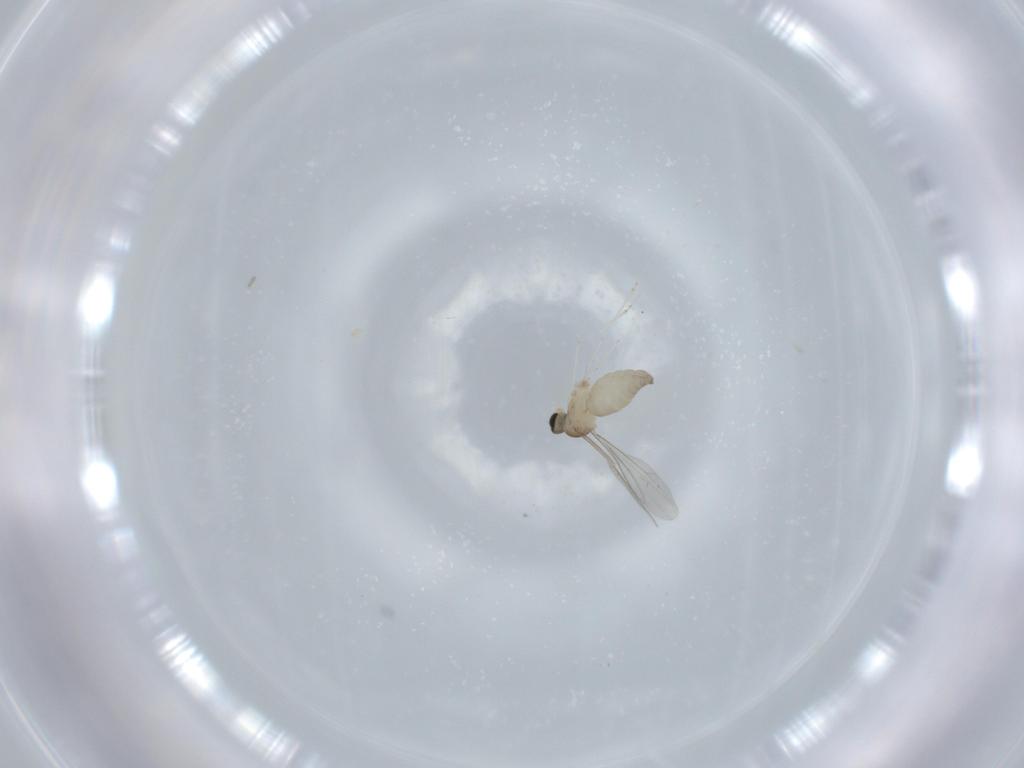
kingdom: Animalia
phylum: Arthropoda
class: Insecta
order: Diptera
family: Cecidomyiidae
